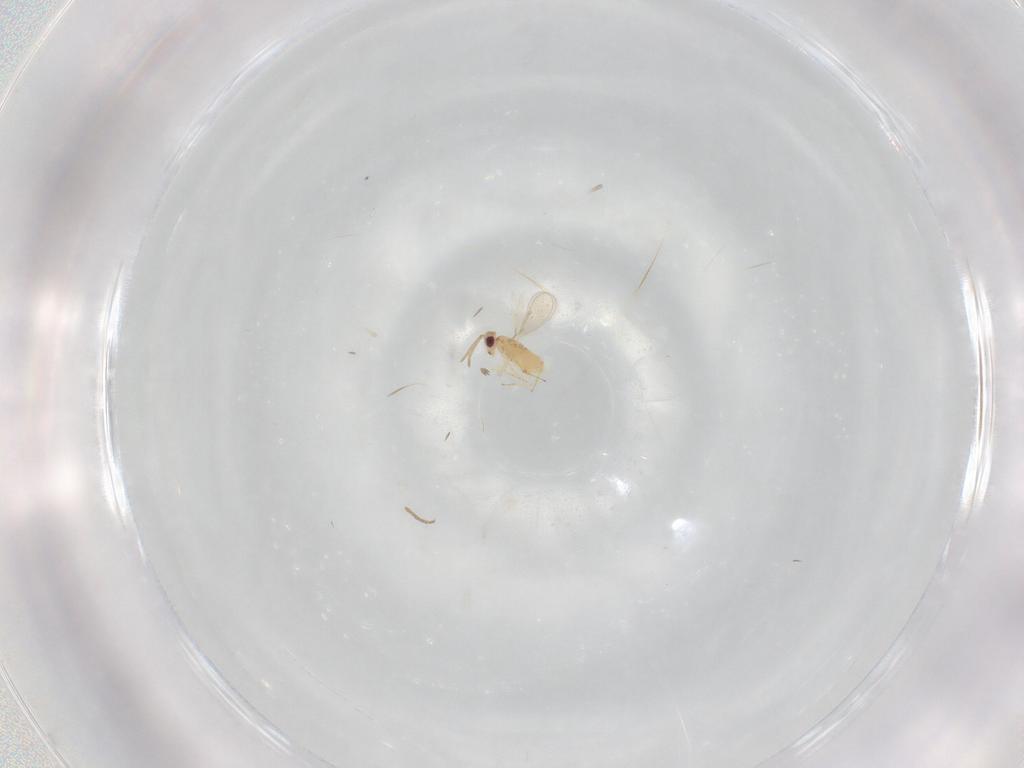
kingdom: Animalia
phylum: Arthropoda
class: Insecta
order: Hymenoptera
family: Aphelinidae
